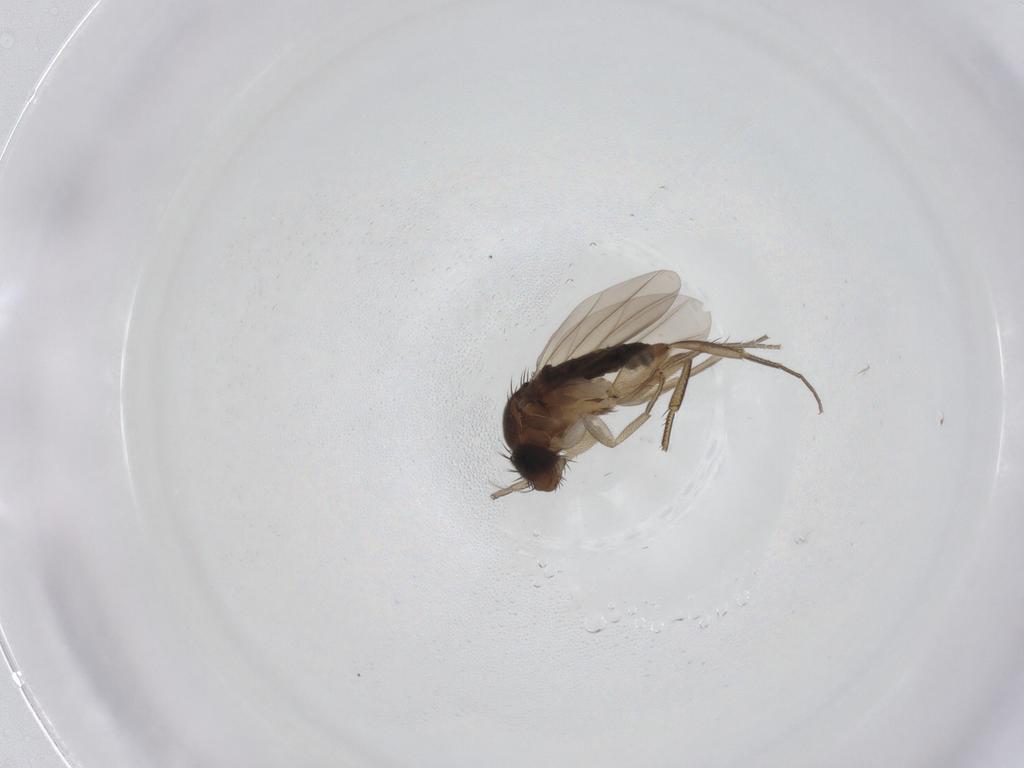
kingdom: Animalia
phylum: Arthropoda
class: Insecta
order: Diptera
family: Phoridae
